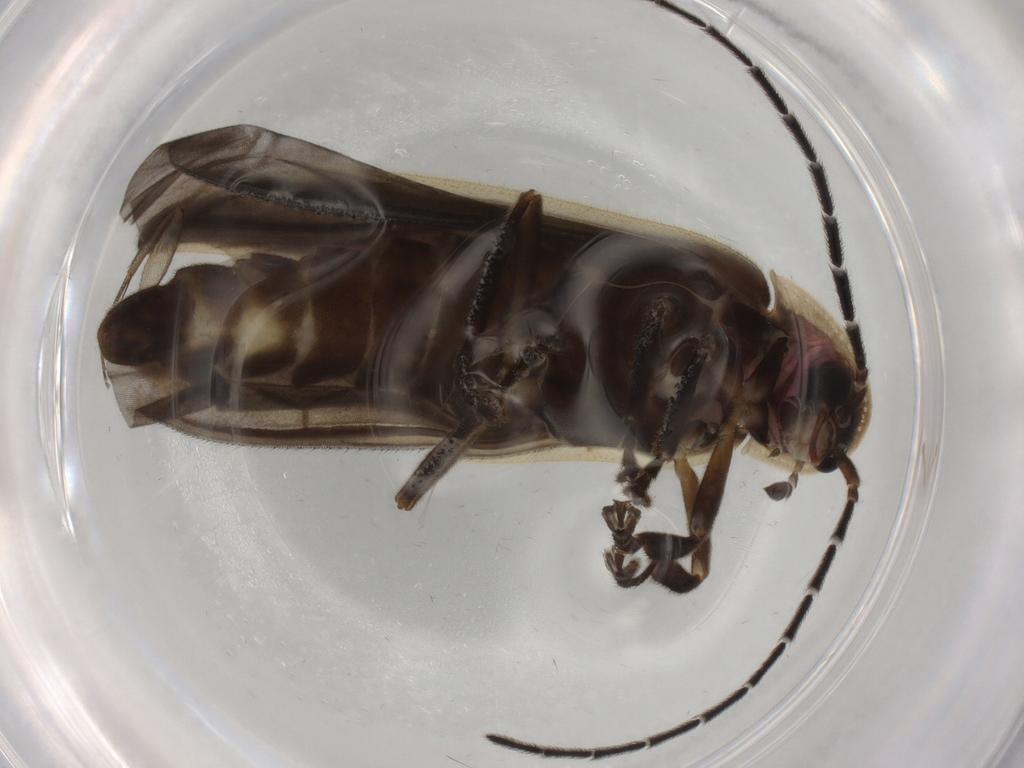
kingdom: Animalia
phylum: Arthropoda
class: Insecta
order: Coleoptera
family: Lampyridae
